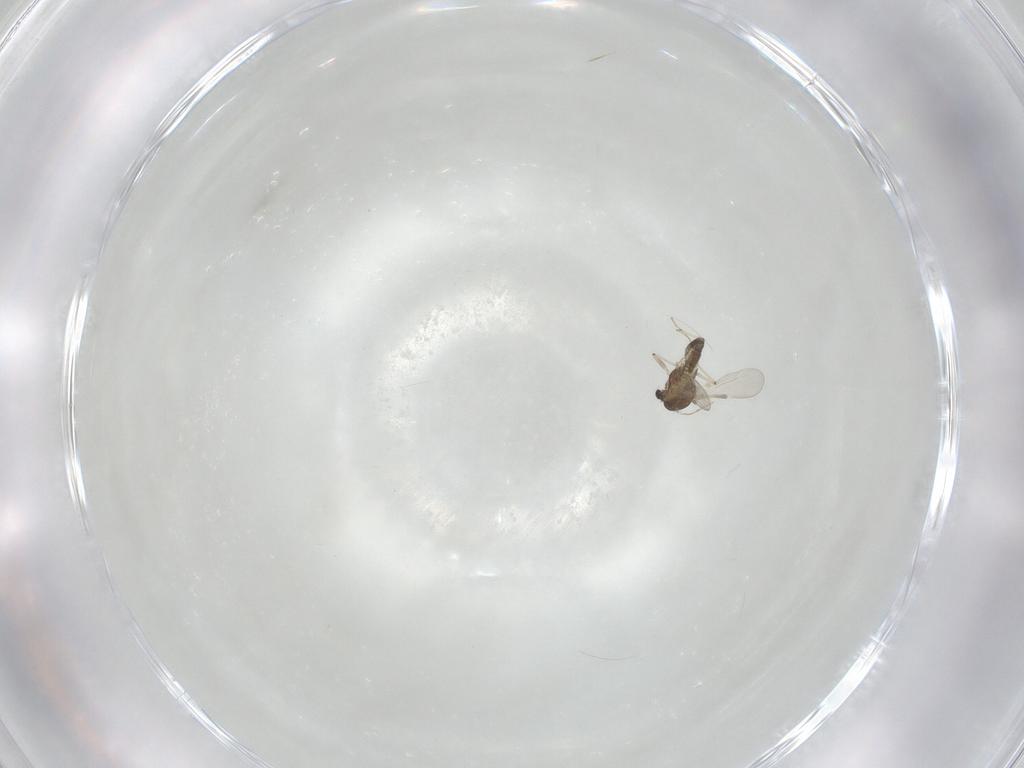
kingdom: Animalia
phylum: Arthropoda
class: Insecta
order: Diptera
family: Chironomidae
